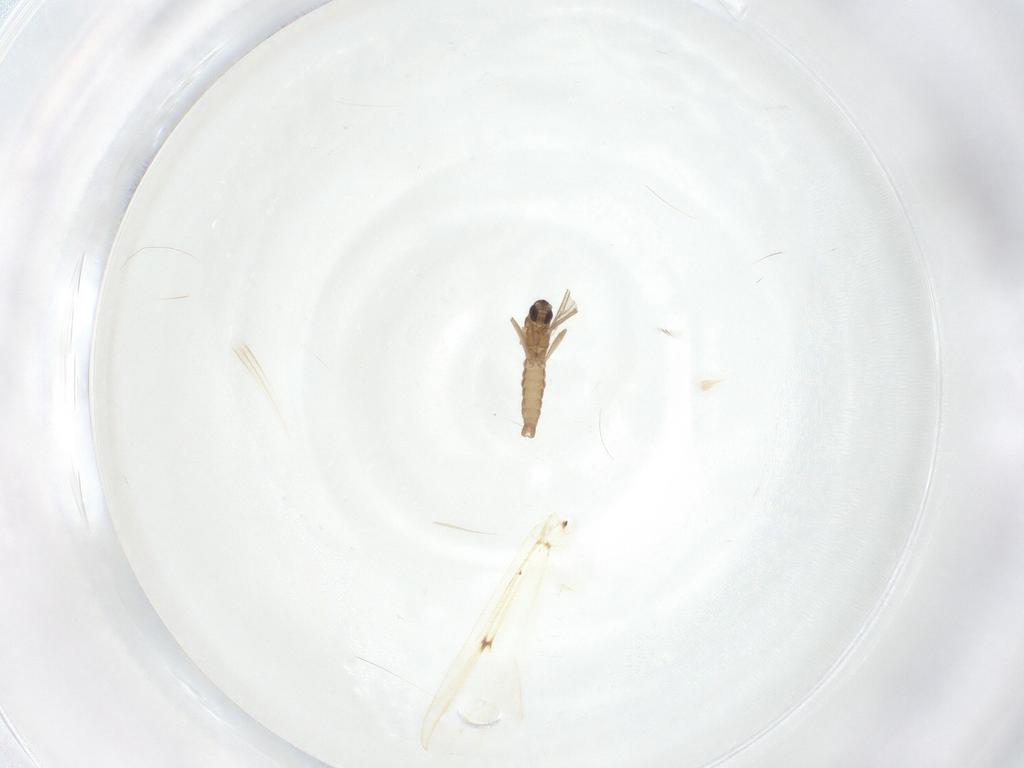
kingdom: Animalia
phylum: Arthropoda
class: Insecta
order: Diptera
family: Cecidomyiidae
